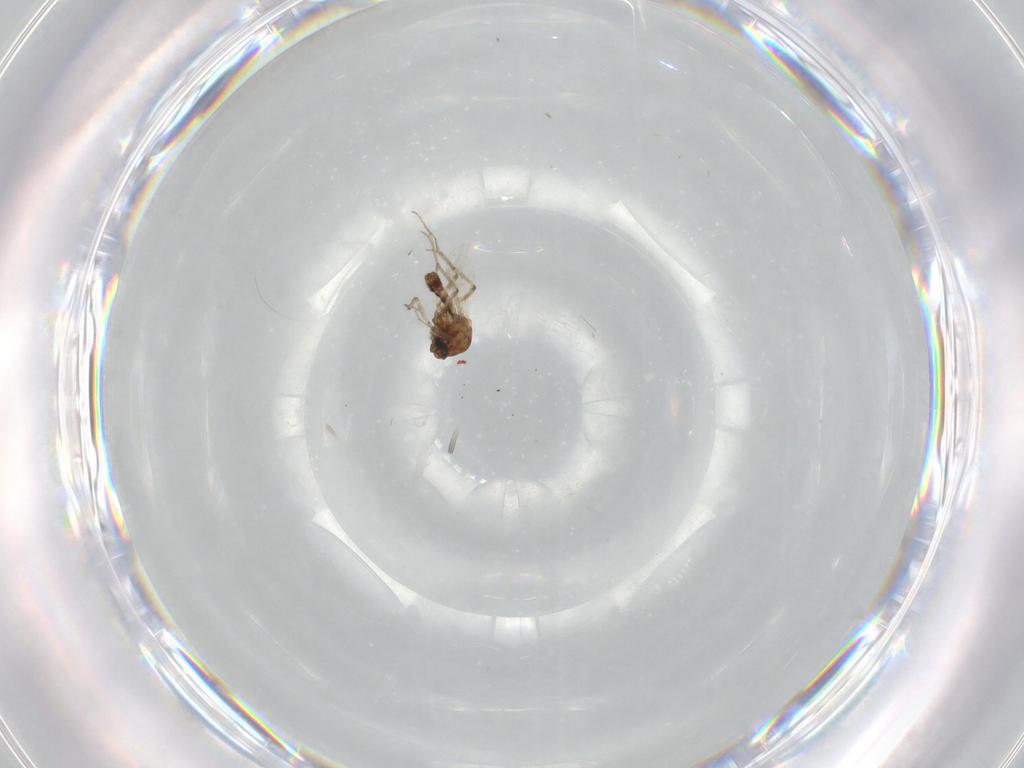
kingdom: Animalia
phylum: Arthropoda
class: Insecta
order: Diptera
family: Ceratopogonidae
